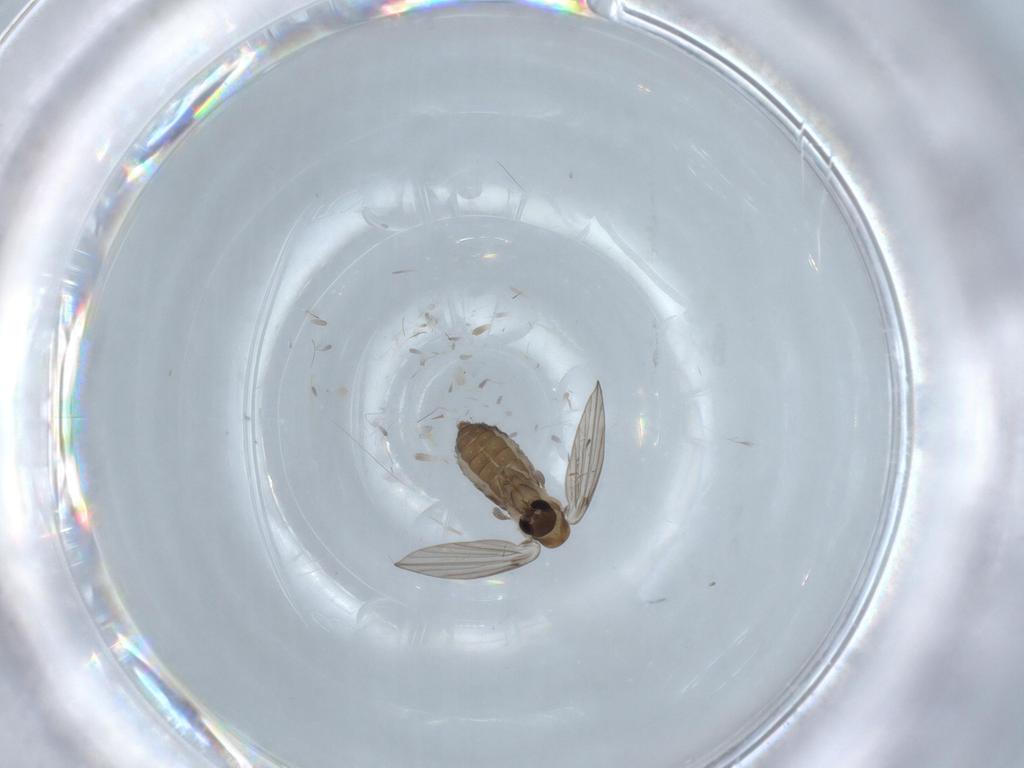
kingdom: Animalia
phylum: Arthropoda
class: Insecta
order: Diptera
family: Psychodidae
